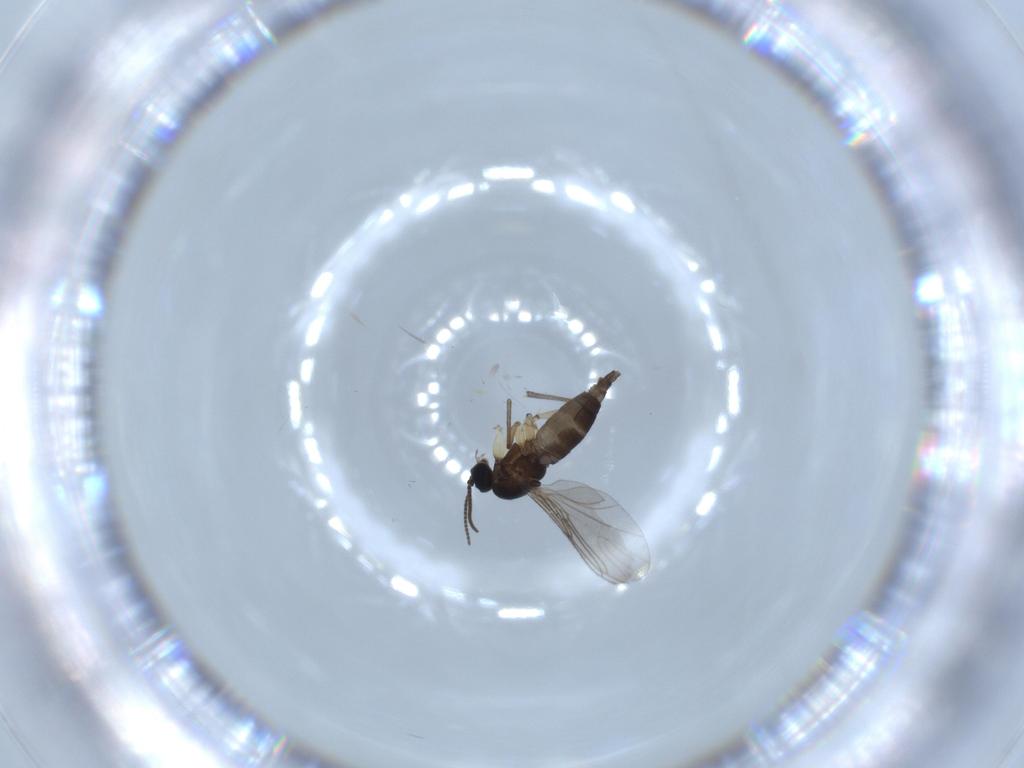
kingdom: Animalia
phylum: Arthropoda
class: Insecta
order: Diptera
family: Sciaridae
